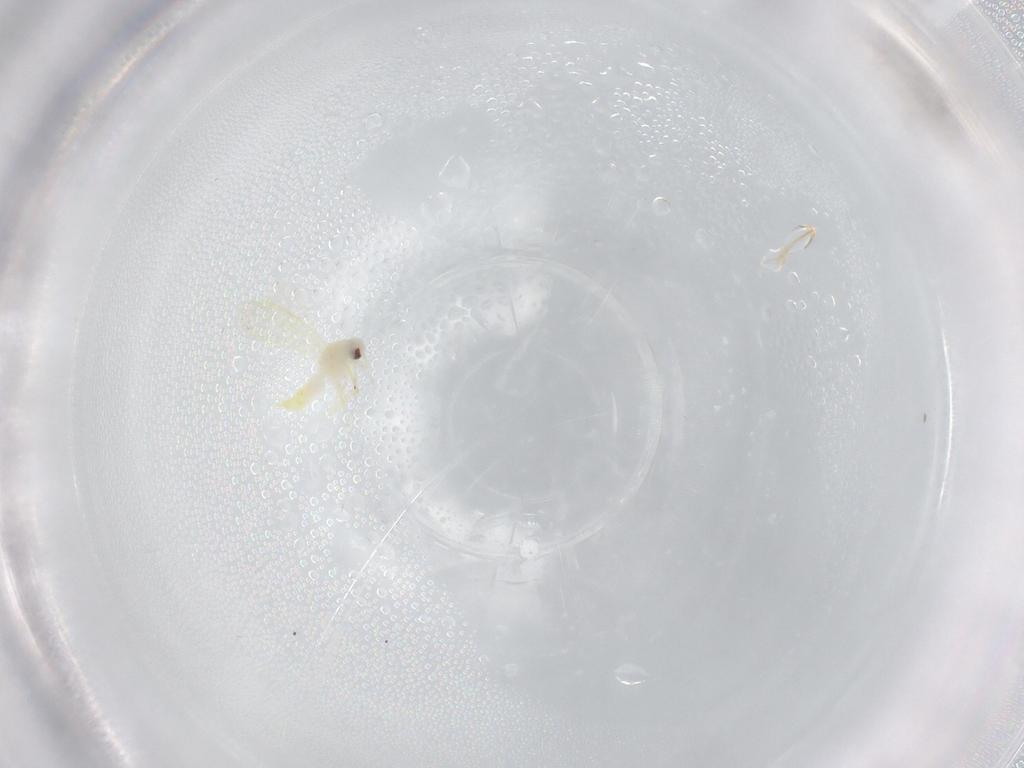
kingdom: Animalia
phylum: Arthropoda
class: Insecta
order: Hemiptera
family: Aleyrodidae
